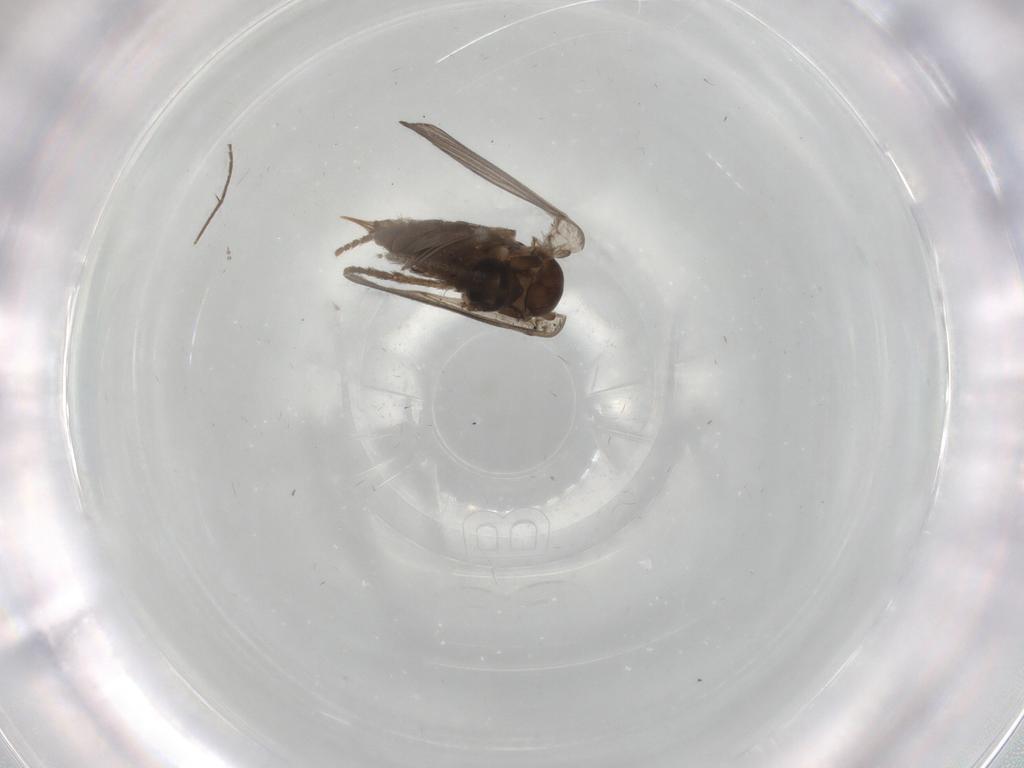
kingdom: Animalia
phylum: Arthropoda
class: Insecta
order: Diptera
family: Psychodidae
